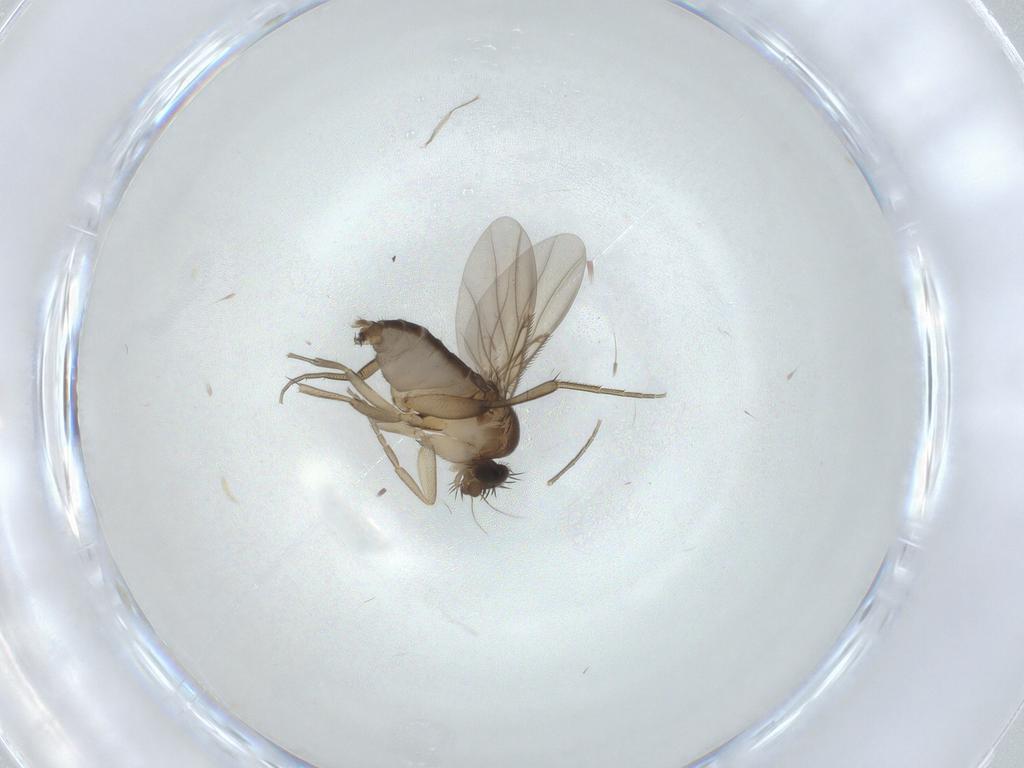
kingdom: Animalia
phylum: Arthropoda
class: Insecta
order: Diptera
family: Phoridae
